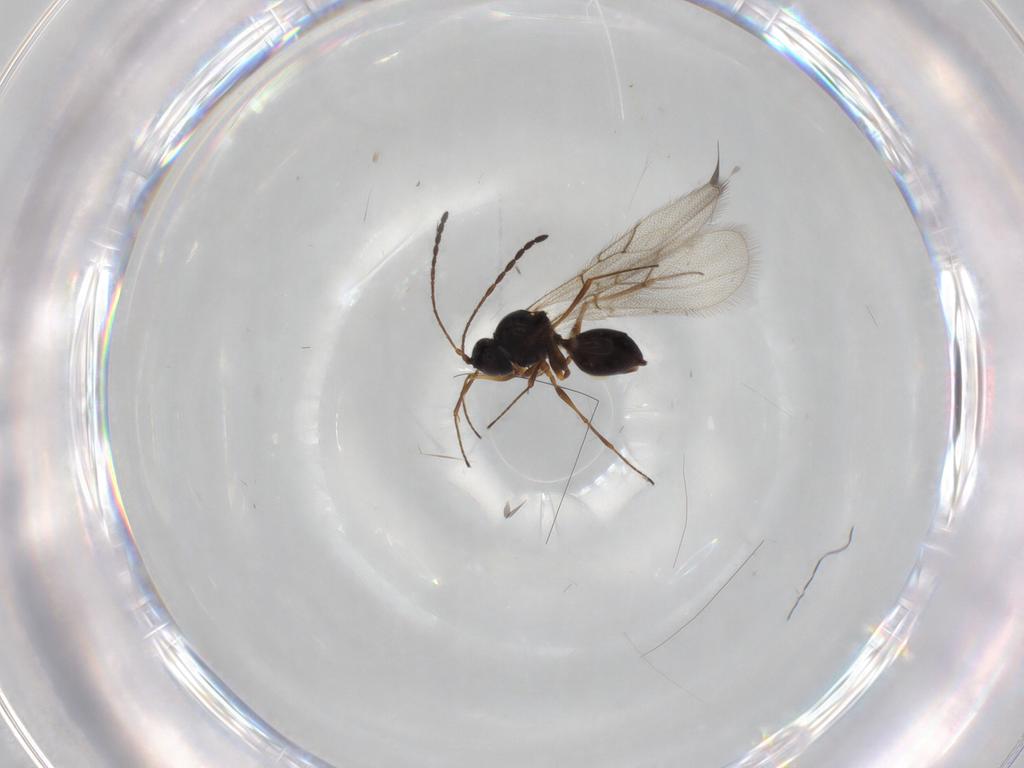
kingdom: Animalia
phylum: Arthropoda
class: Insecta
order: Hymenoptera
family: Figitidae
